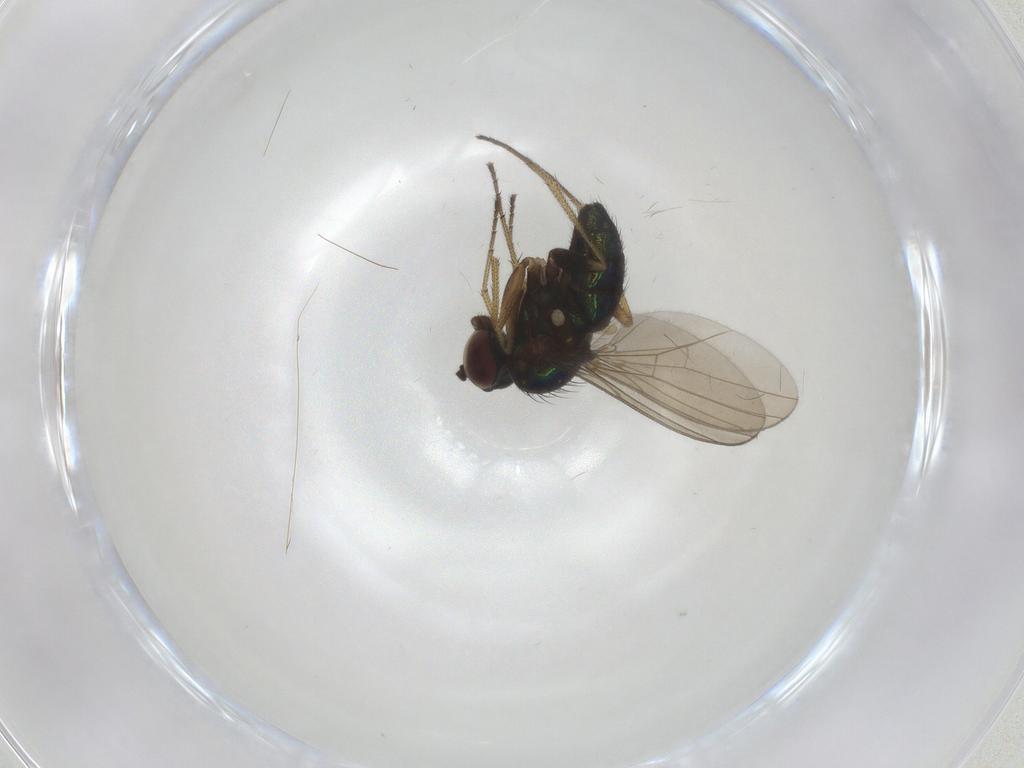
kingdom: Animalia
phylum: Arthropoda
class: Insecta
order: Diptera
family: Dolichopodidae
